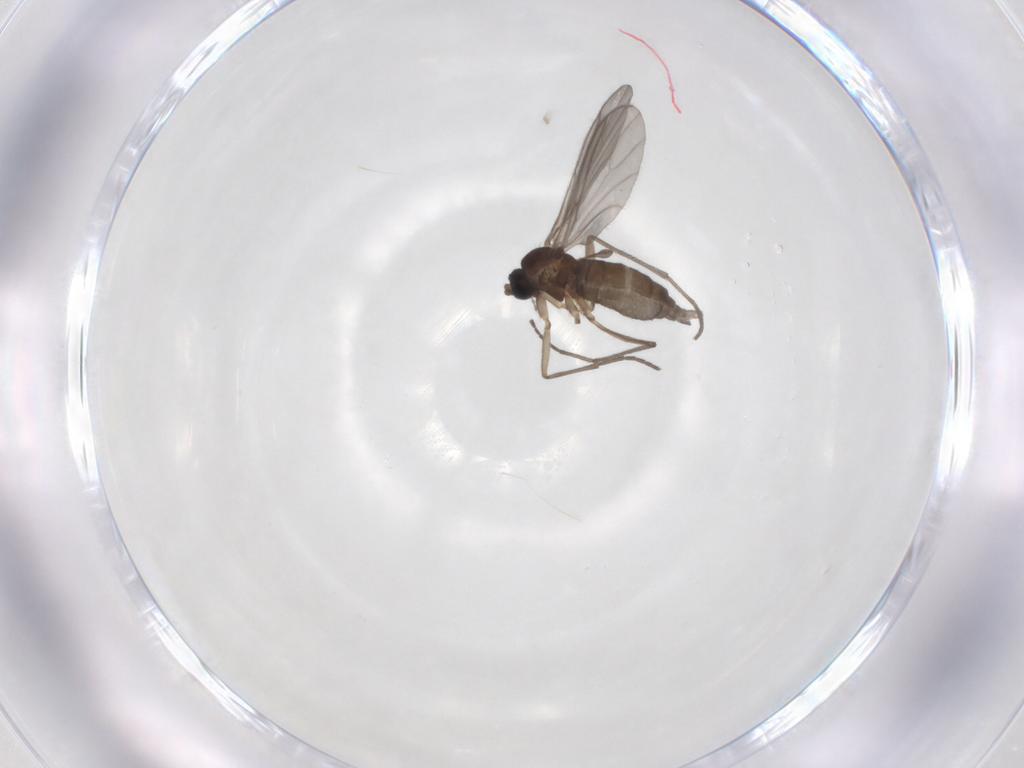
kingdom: Animalia
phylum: Arthropoda
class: Insecta
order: Diptera
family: Sciaridae
